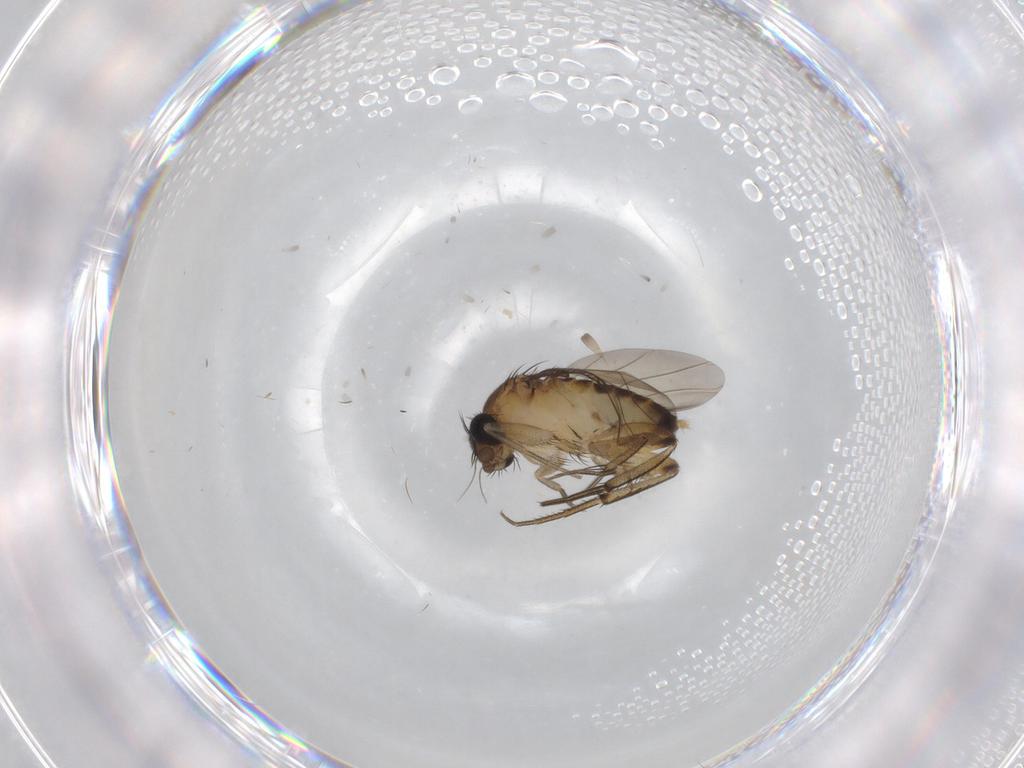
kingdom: Animalia
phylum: Arthropoda
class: Insecta
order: Diptera
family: Phoridae
